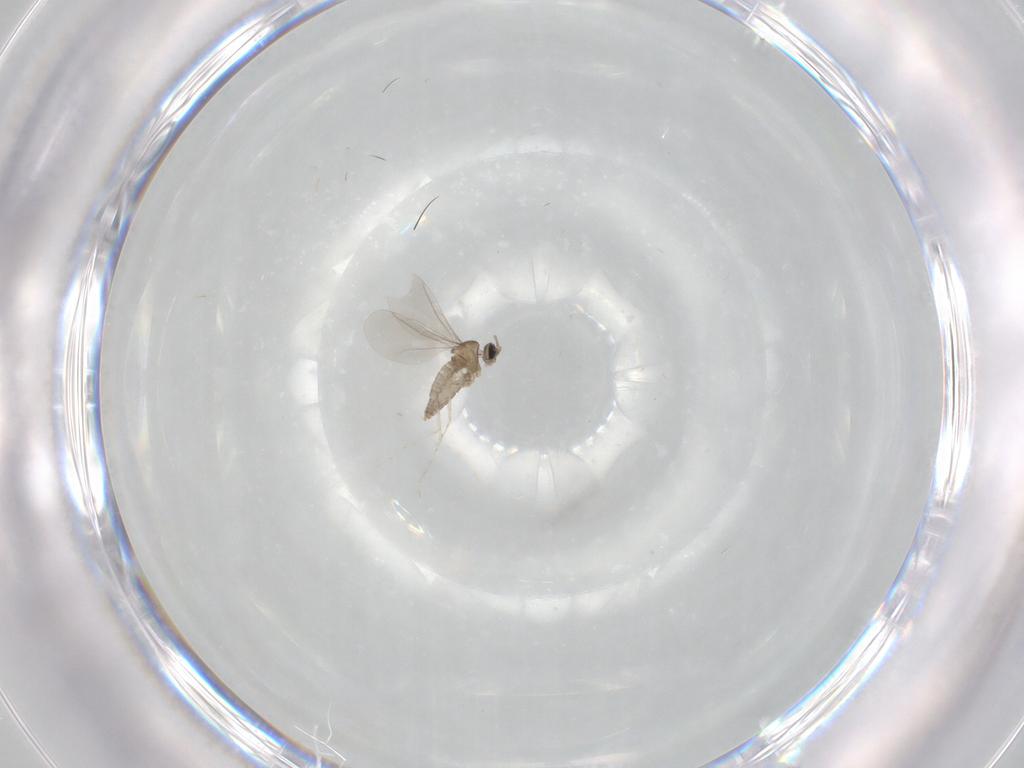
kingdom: Animalia
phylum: Arthropoda
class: Insecta
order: Diptera
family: Cecidomyiidae
